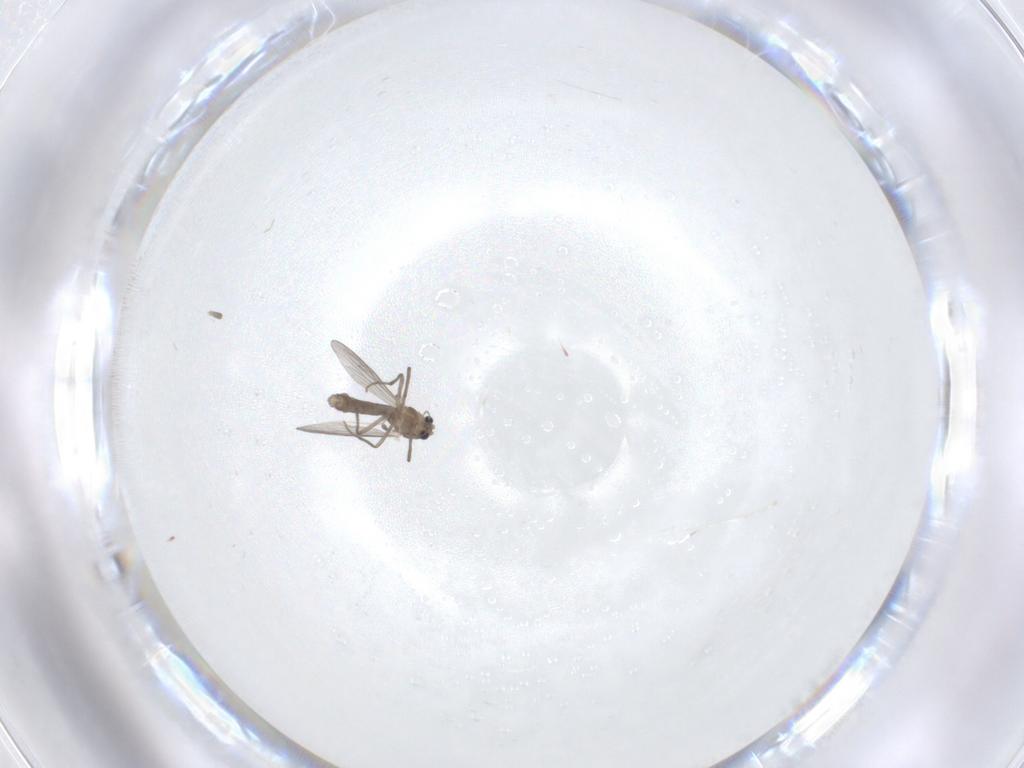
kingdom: Animalia
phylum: Arthropoda
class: Insecta
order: Diptera
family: Chironomidae
